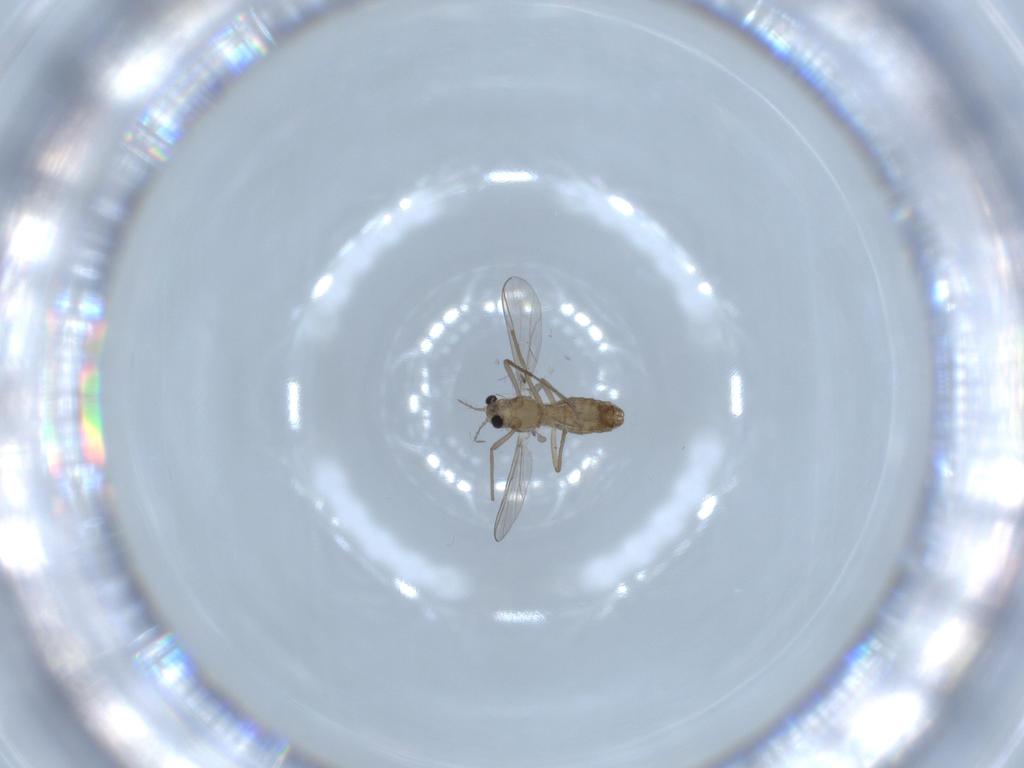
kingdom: Animalia
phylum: Arthropoda
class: Insecta
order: Diptera
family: Chironomidae
